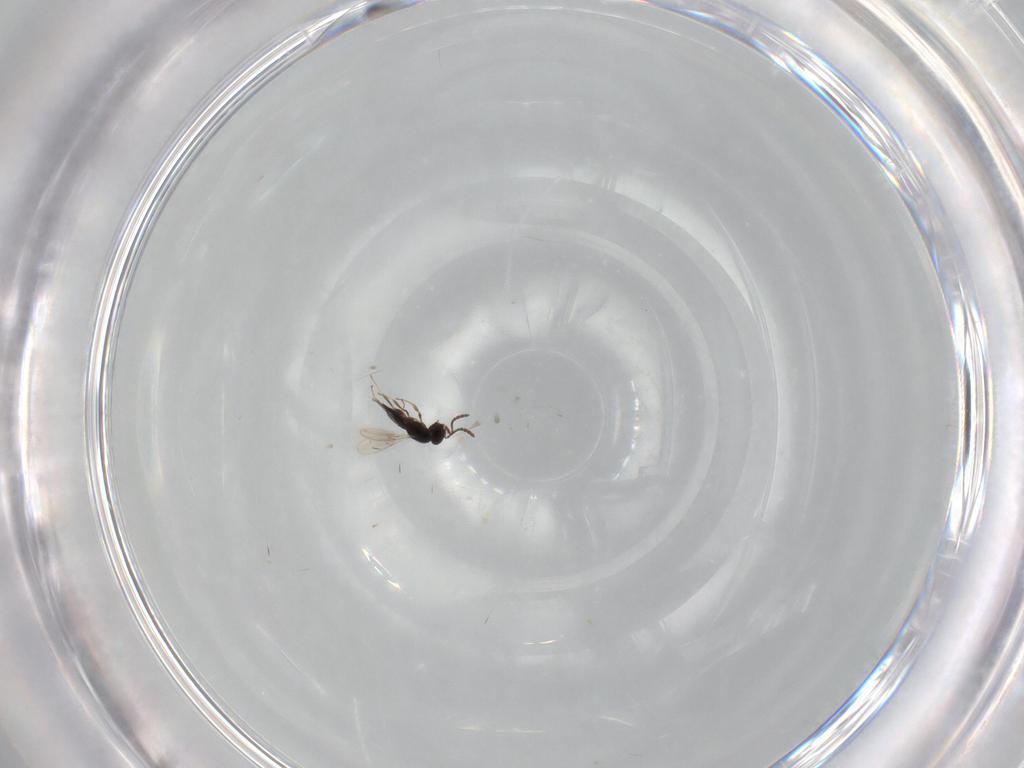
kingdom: Animalia
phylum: Arthropoda
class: Insecta
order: Hymenoptera
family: Scelionidae
